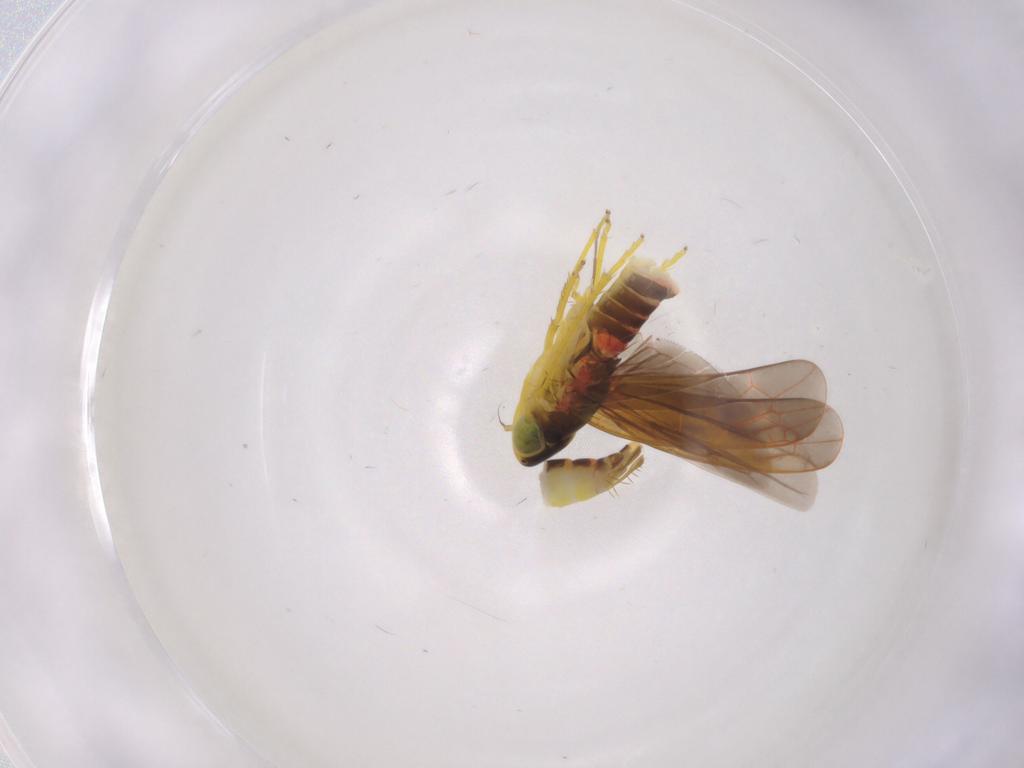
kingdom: Animalia
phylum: Arthropoda
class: Insecta
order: Hemiptera
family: Cicadellidae
